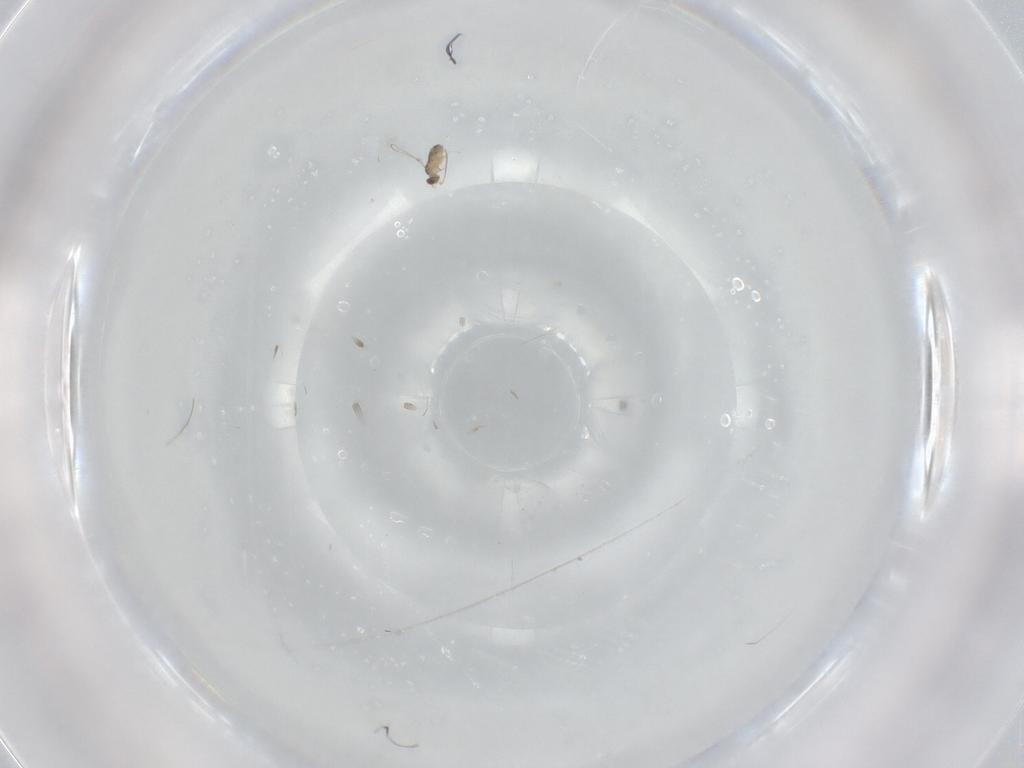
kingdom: Animalia
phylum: Arthropoda
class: Insecta
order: Hymenoptera
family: Mymaridae
